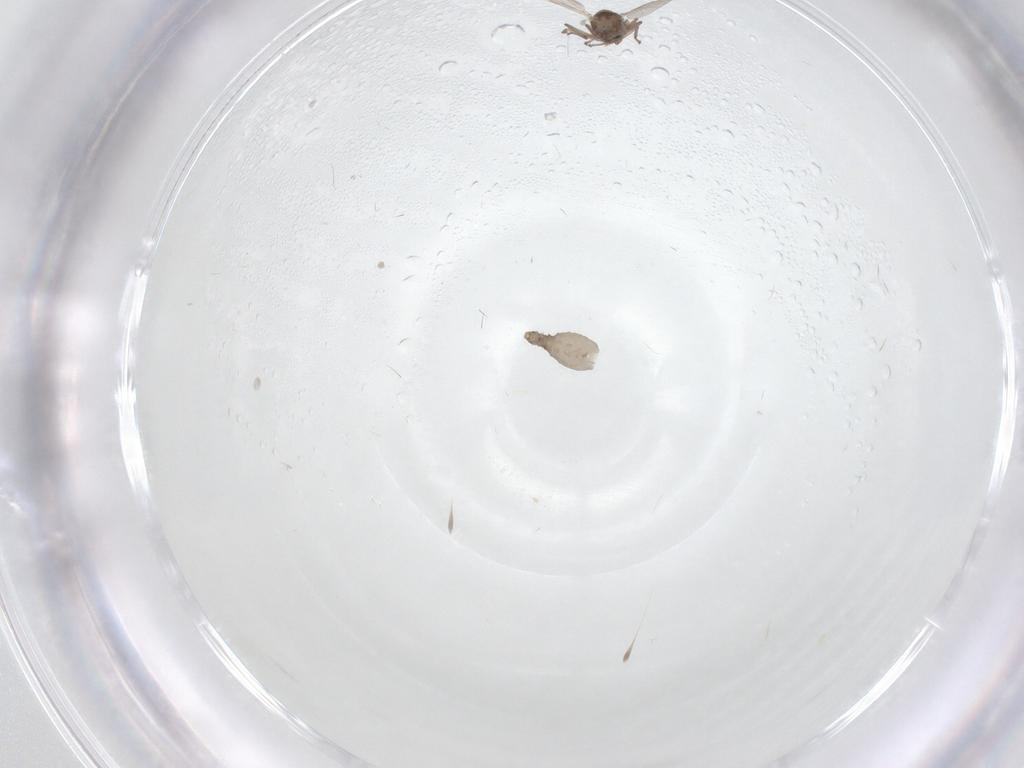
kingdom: Animalia
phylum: Arthropoda
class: Insecta
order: Diptera
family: Culicidae
